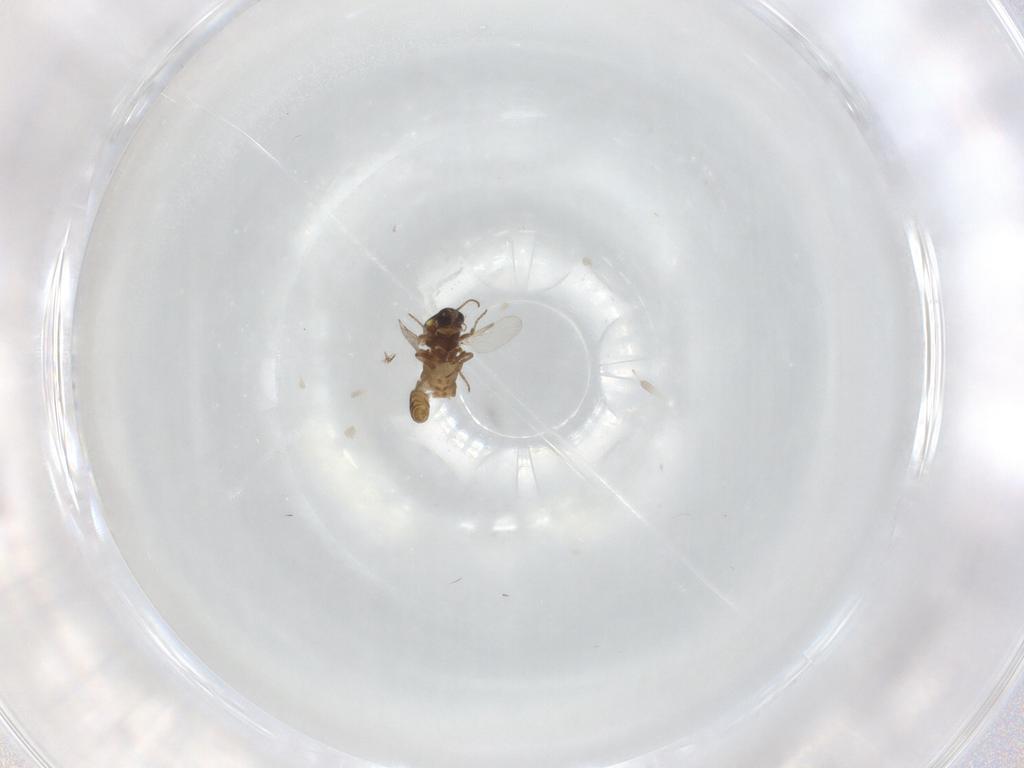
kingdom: Animalia
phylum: Arthropoda
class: Insecta
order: Diptera
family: Ceratopogonidae
